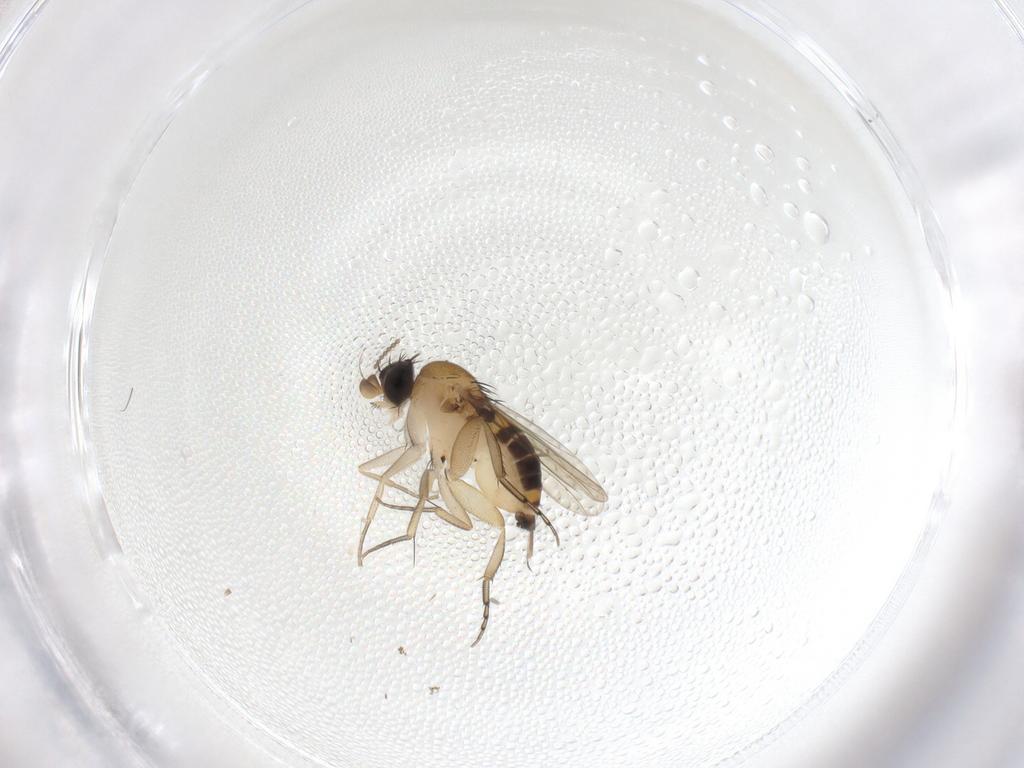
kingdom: Animalia
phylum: Arthropoda
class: Insecta
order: Diptera
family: Phoridae
